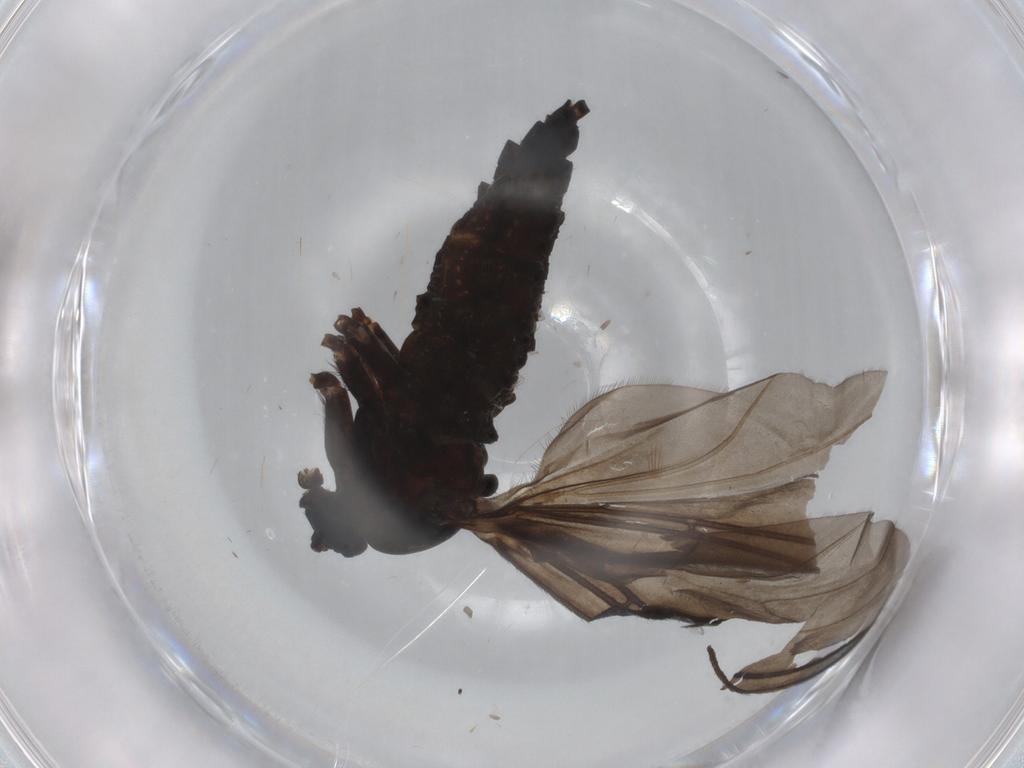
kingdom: Animalia
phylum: Arthropoda
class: Insecta
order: Diptera
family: Sciaridae
